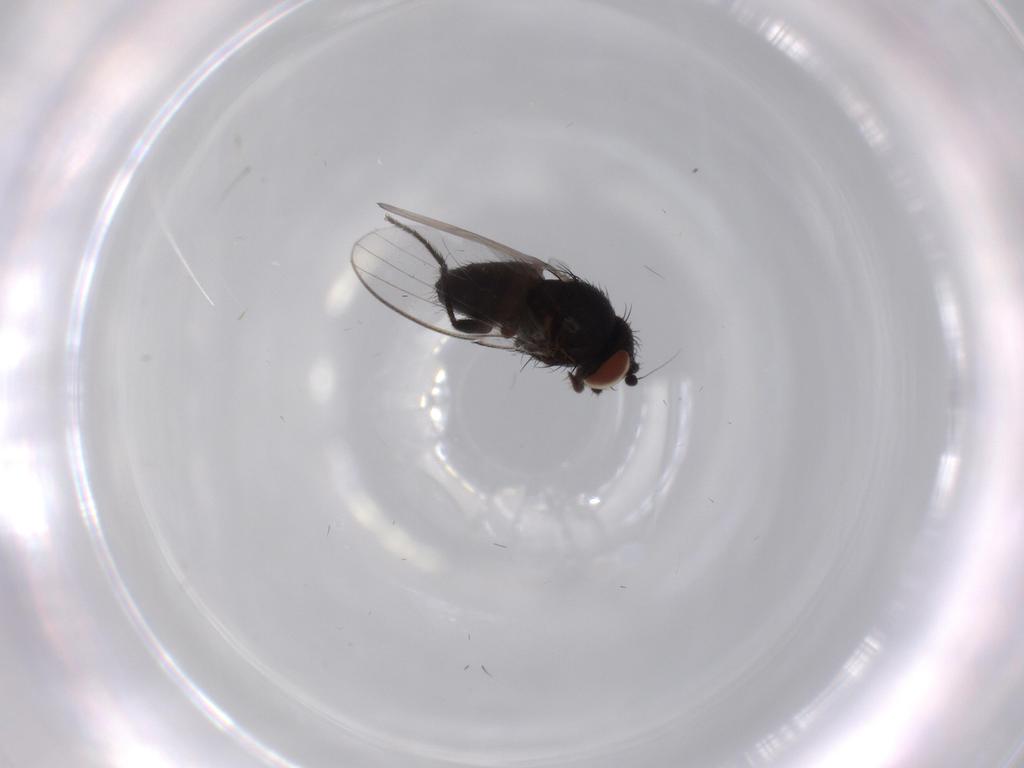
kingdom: Animalia
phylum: Arthropoda
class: Insecta
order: Diptera
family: Milichiidae
